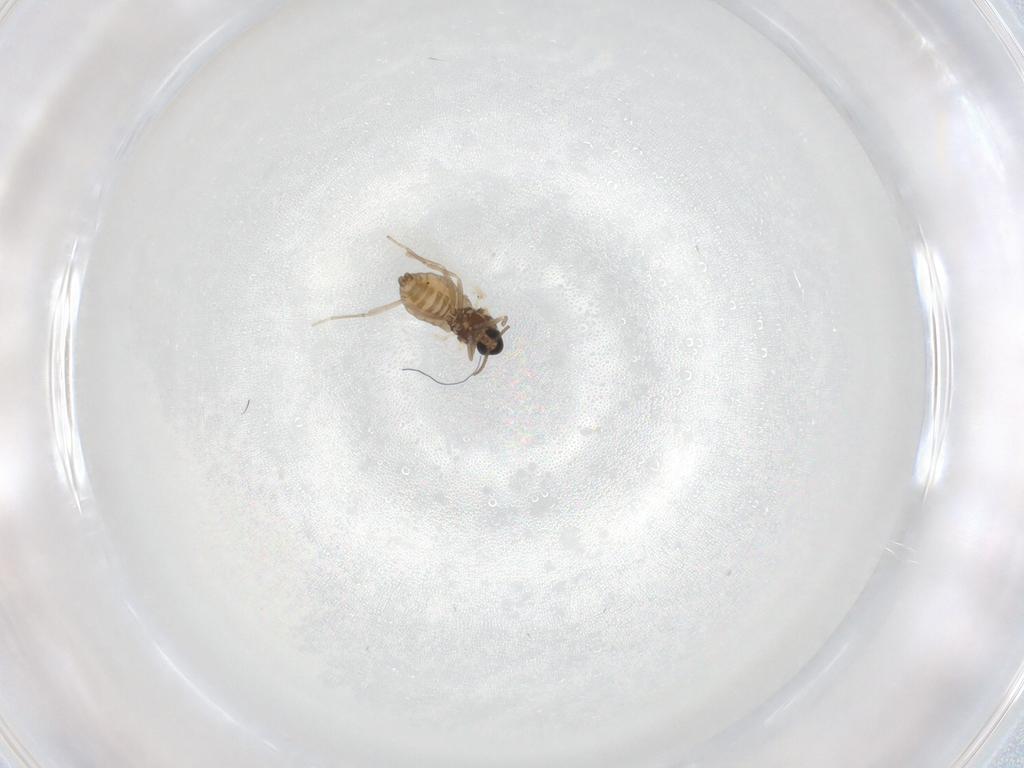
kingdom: Animalia
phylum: Arthropoda
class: Insecta
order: Diptera
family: Cecidomyiidae
